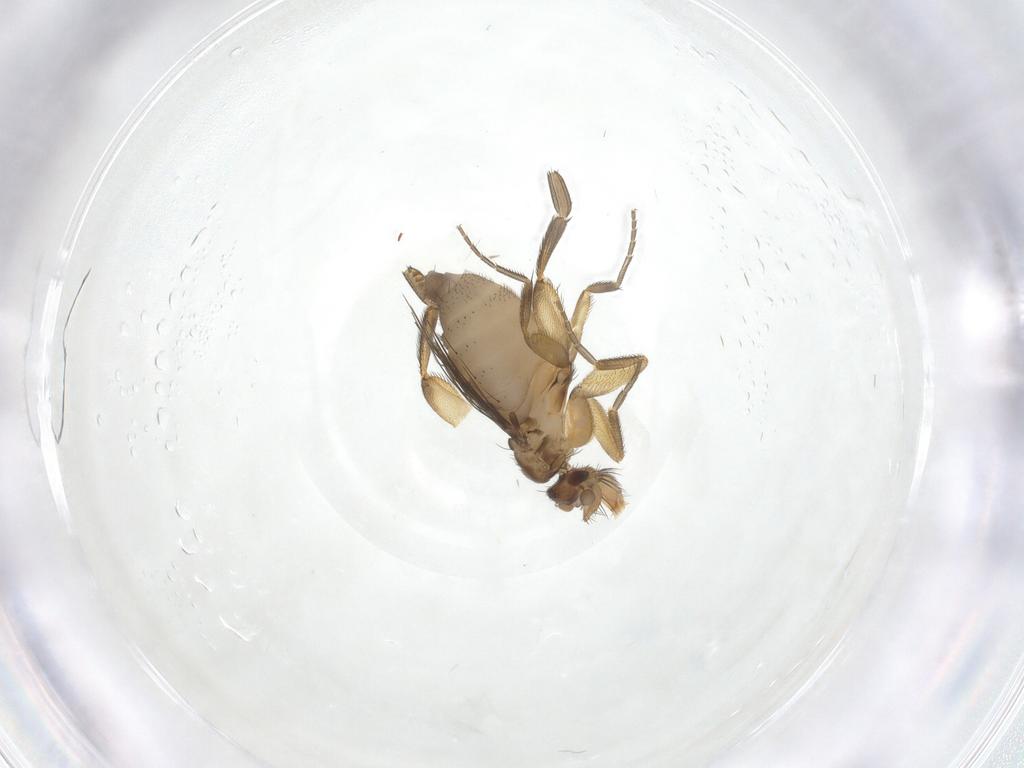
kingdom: Animalia
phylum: Arthropoda
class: Insecta
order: Diptera
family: Phoridae
